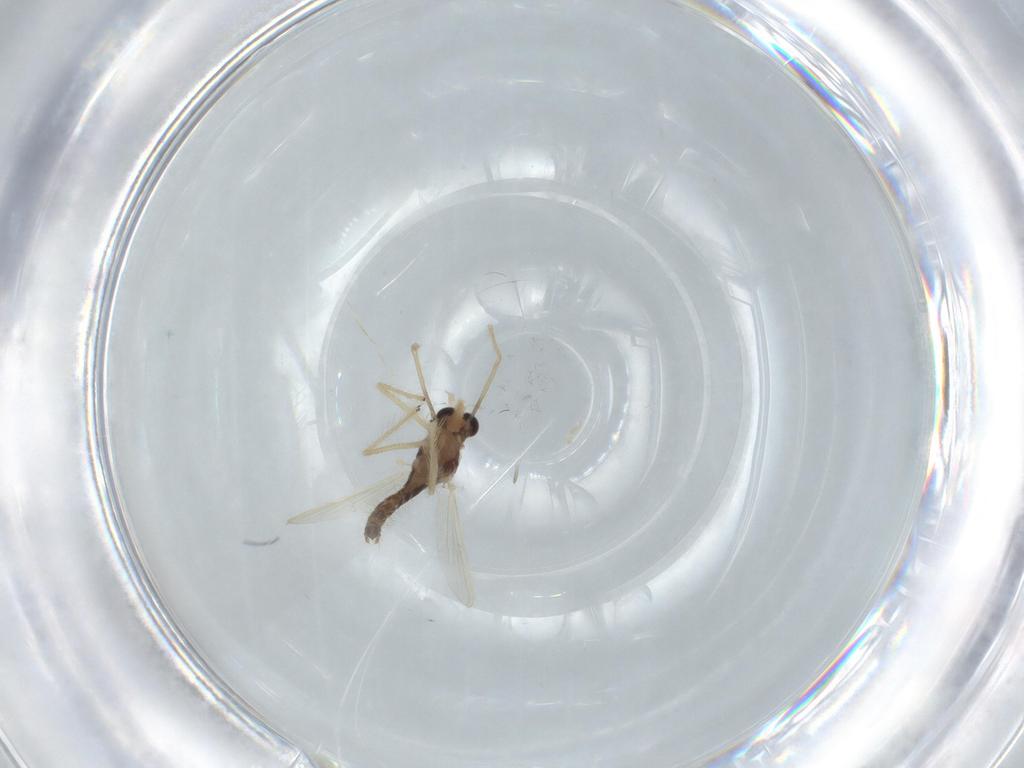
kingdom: Animalia
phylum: Arthropoda
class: Insecta
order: Diptera
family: Chironomidae
